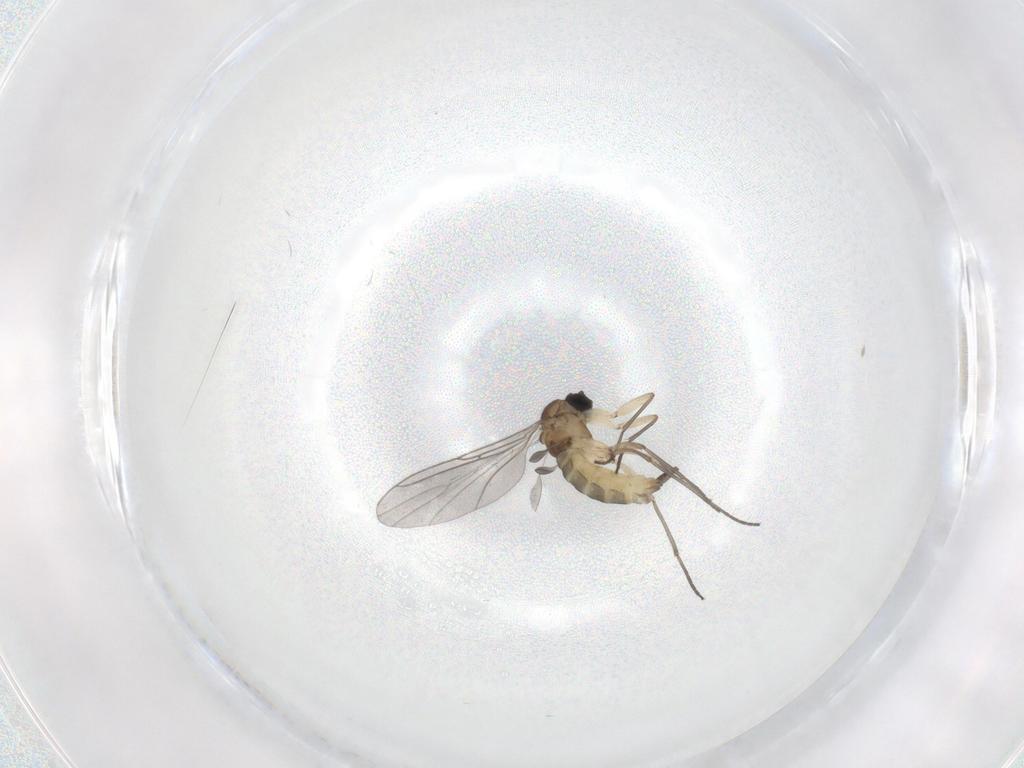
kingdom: Animalia
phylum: Arthropoda
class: Insecta
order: Diptera
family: Sciaridae
